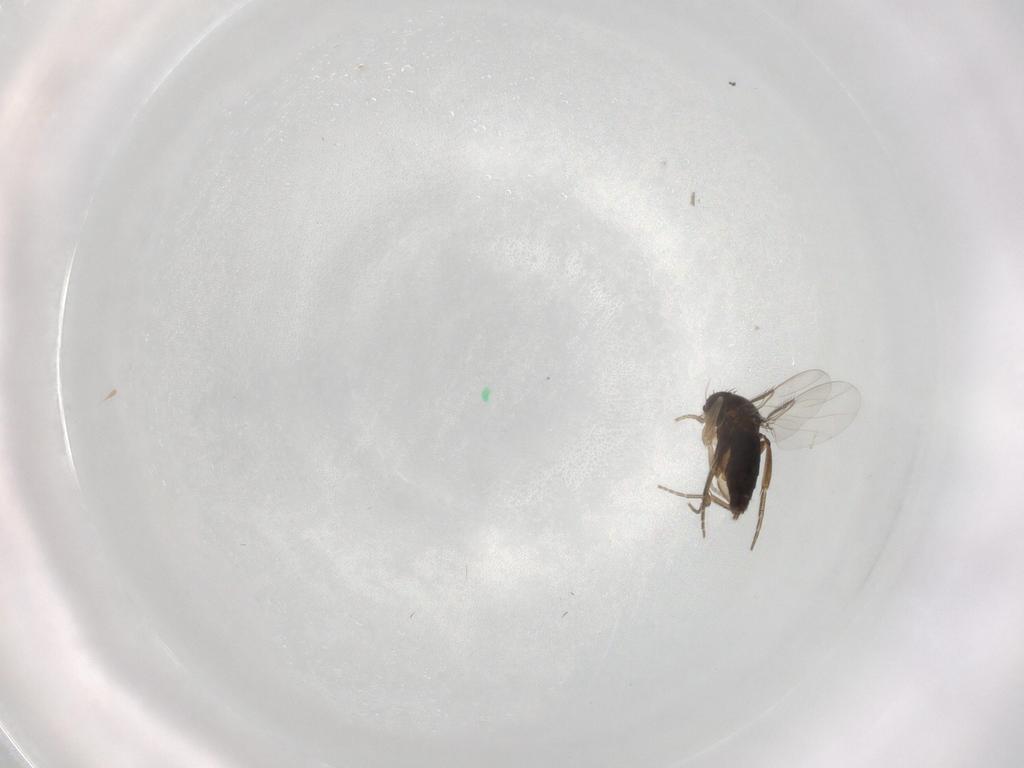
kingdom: Animalia
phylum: Arthropoda
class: Insecta
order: Diptera
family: Phoridae
